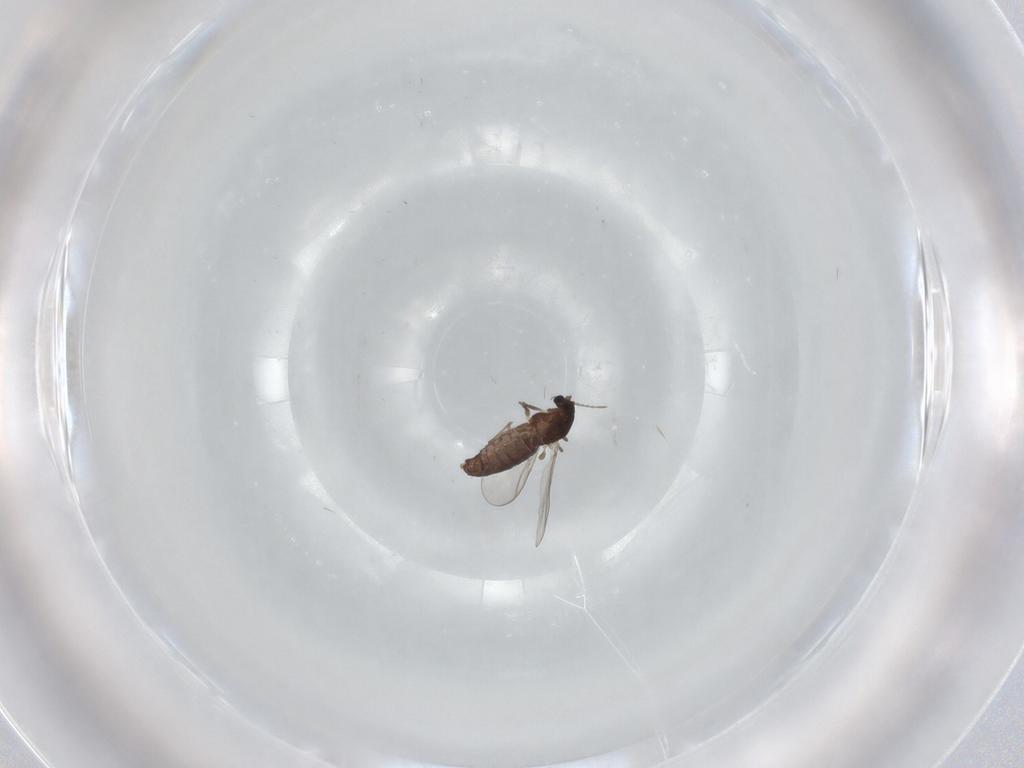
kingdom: Animalia
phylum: Arthropoda
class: Insecta
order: Diptera
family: Chironomidae
